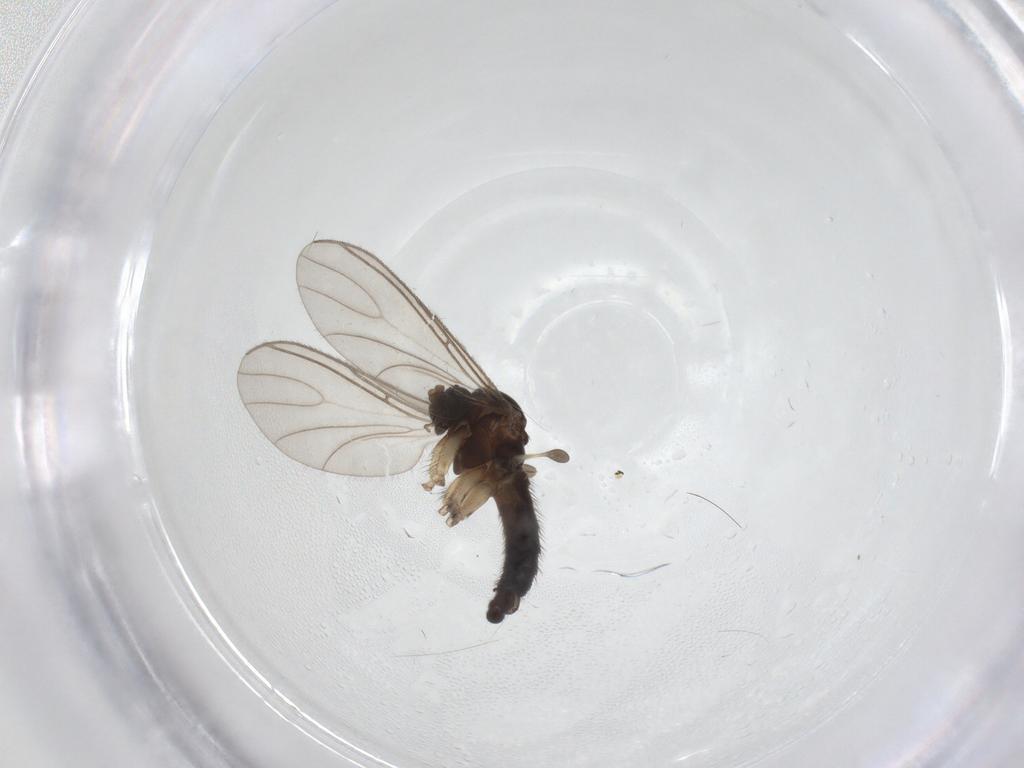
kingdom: Animalia
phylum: Arthropoda
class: Insecta
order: Diptera
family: Sciaridae
